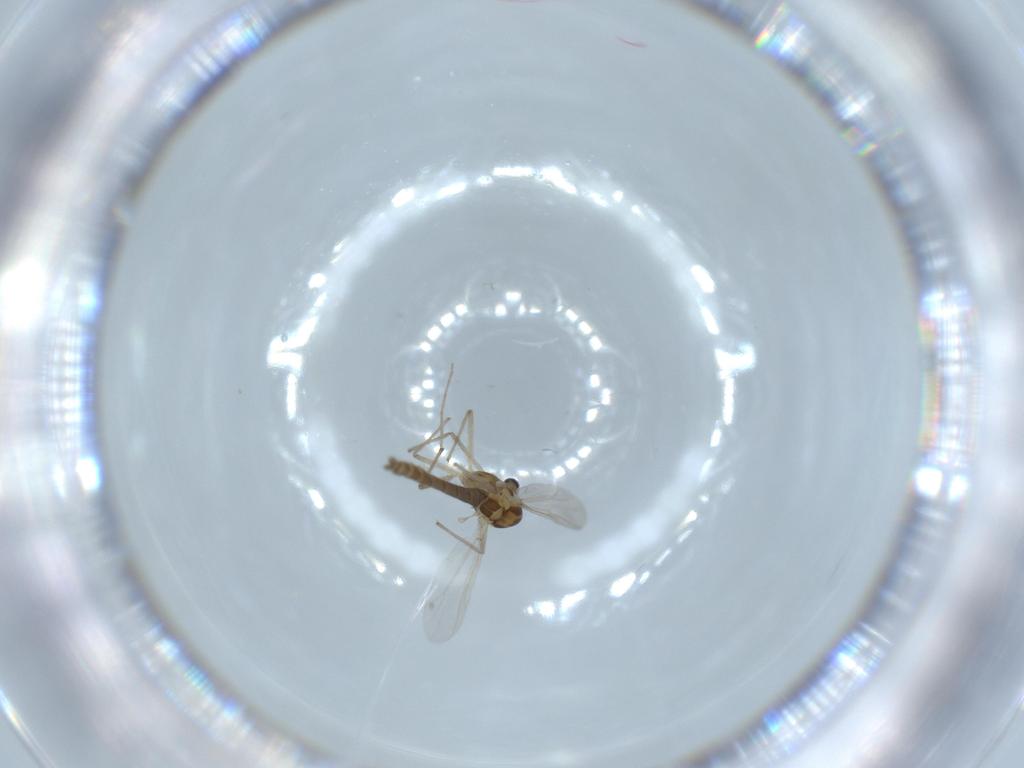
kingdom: Animalia
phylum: Arthropoda
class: Insecta
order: Diptera
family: Chironomidae
